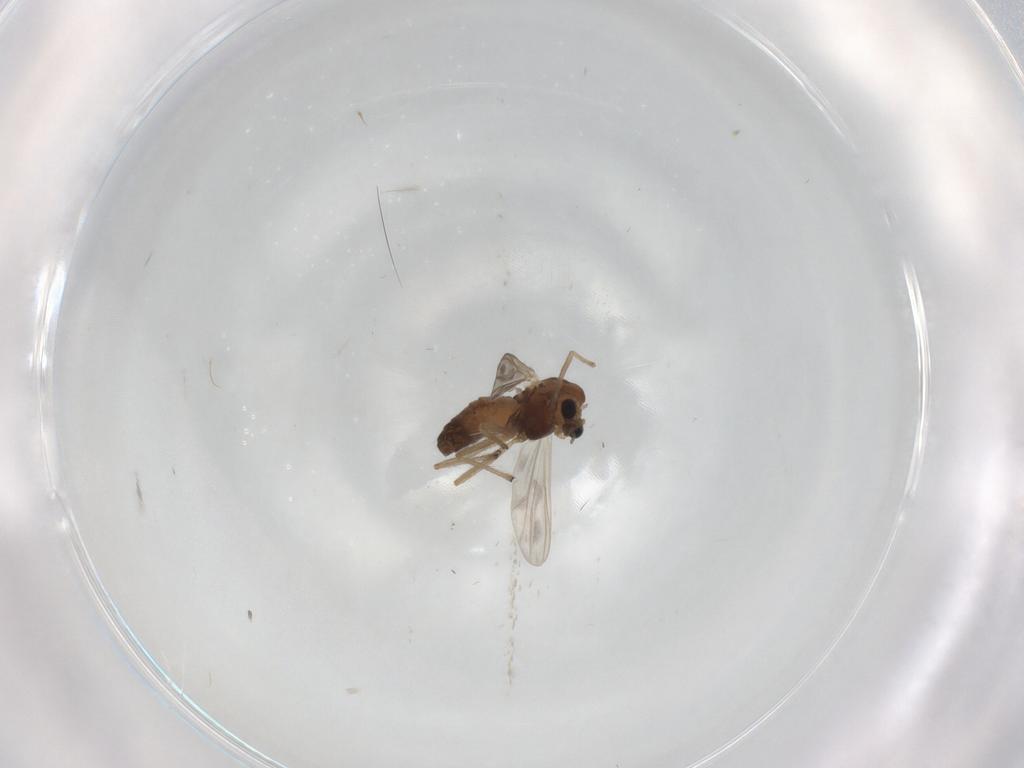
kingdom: Animalia
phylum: Arthropoda
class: Insecta
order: Diptera
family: Chironomidae
